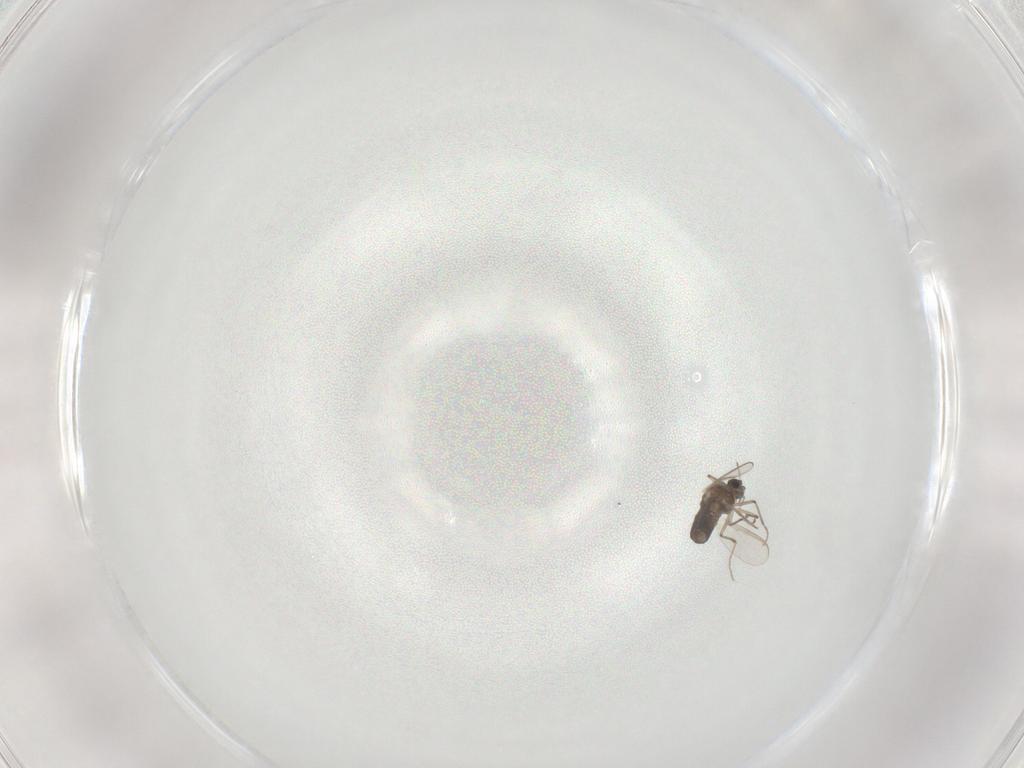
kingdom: Animalia
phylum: Arthropoda
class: Insecta
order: Diptera
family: Chironomidae
